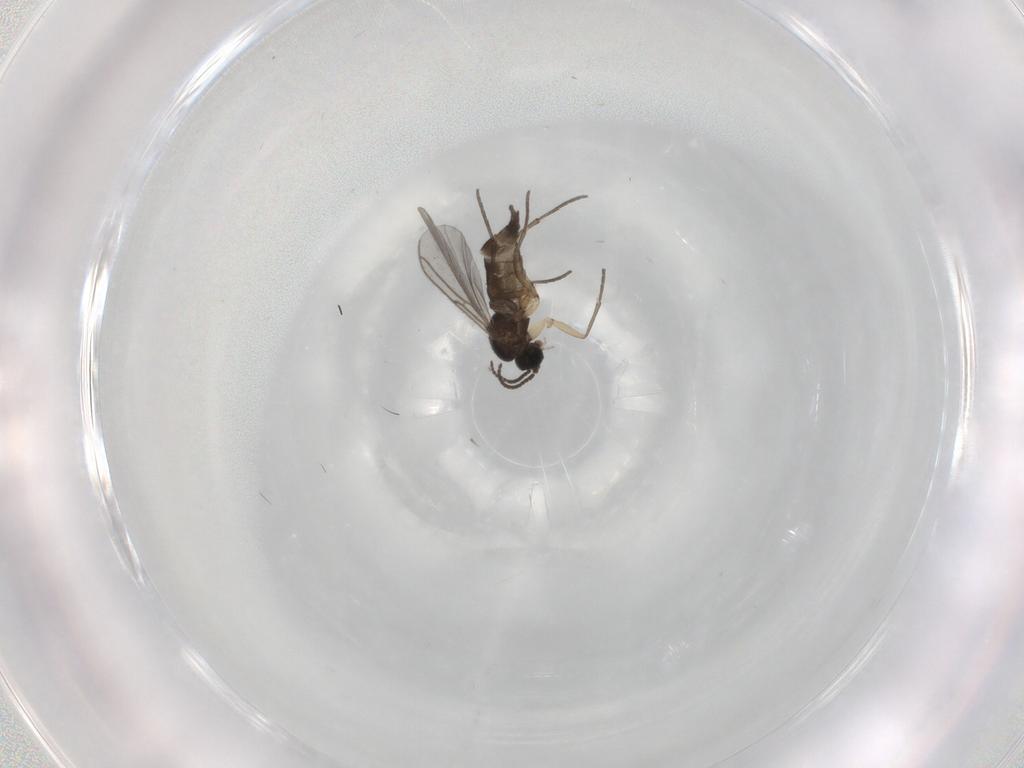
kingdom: Animalia
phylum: Arthropoda
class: Insecta
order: Diptera
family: Sciaridae
